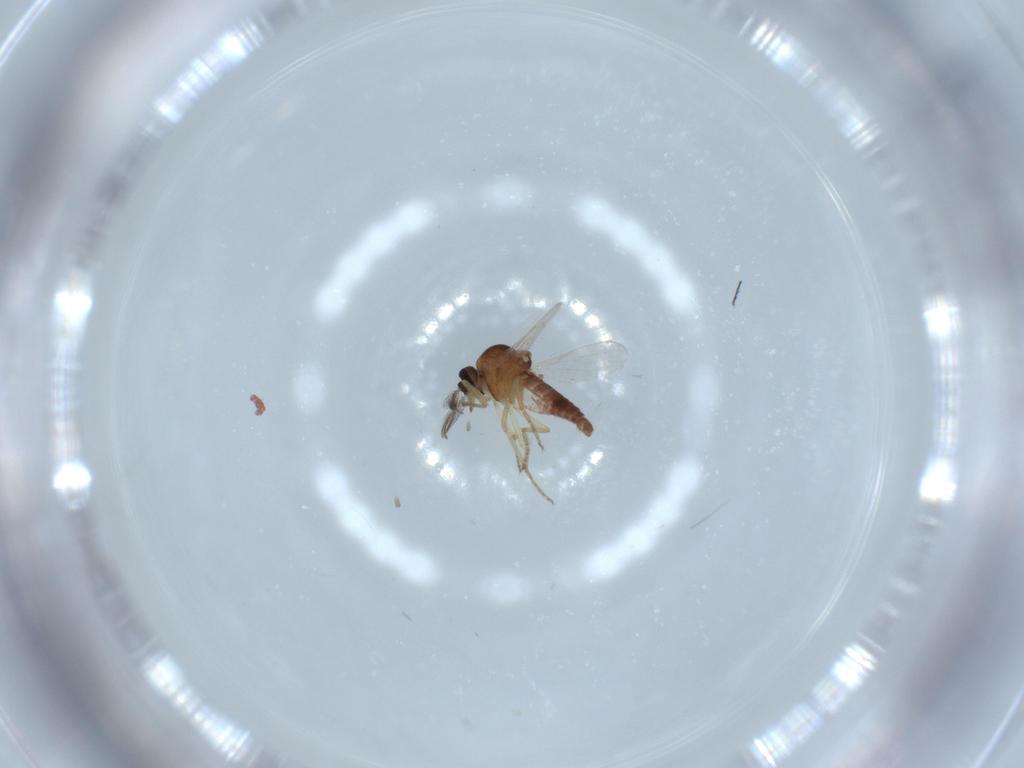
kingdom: Animalia
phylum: Arthropoda
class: Insecta
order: Diptera
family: Ceratopogonidae
